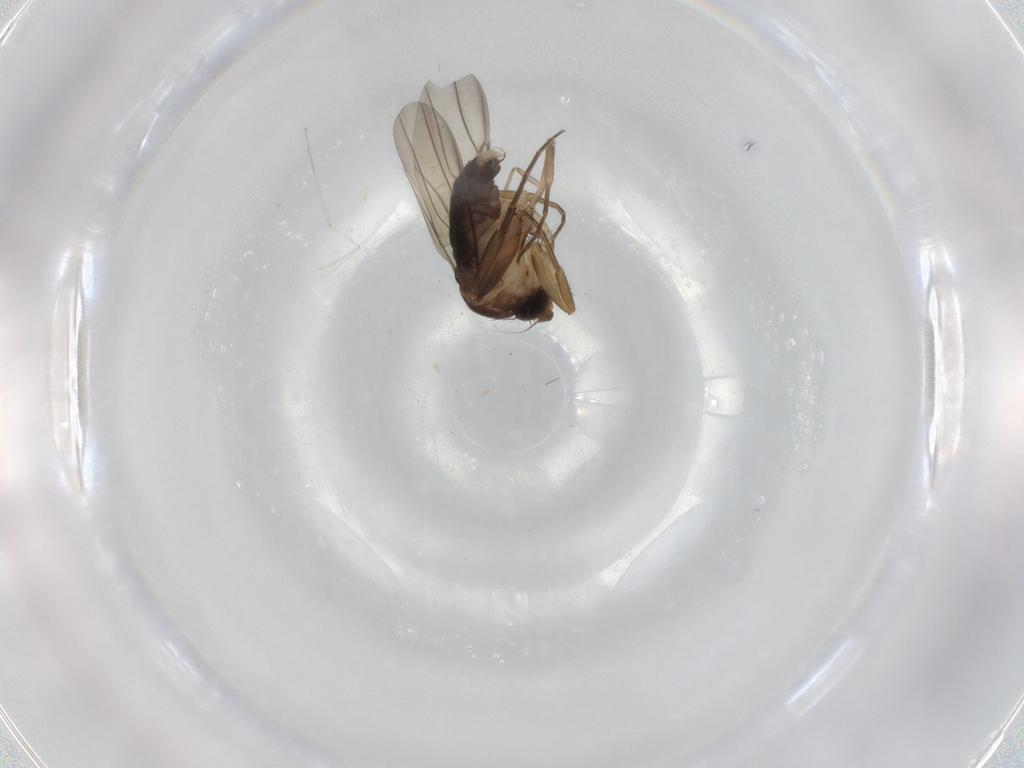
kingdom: Animalia
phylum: Arthropoda
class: Insecta
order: Diptera
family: Phoridae
